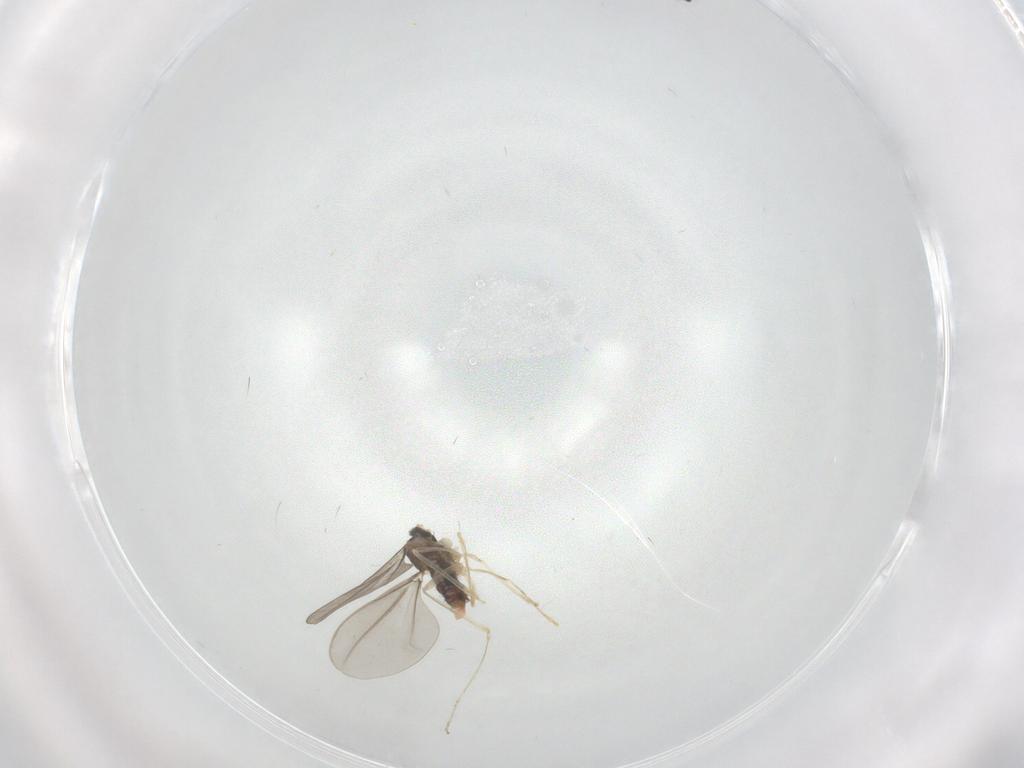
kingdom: Animalia
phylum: Arthropoda
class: Insecta
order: Diptera
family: Cecidomyiidae
